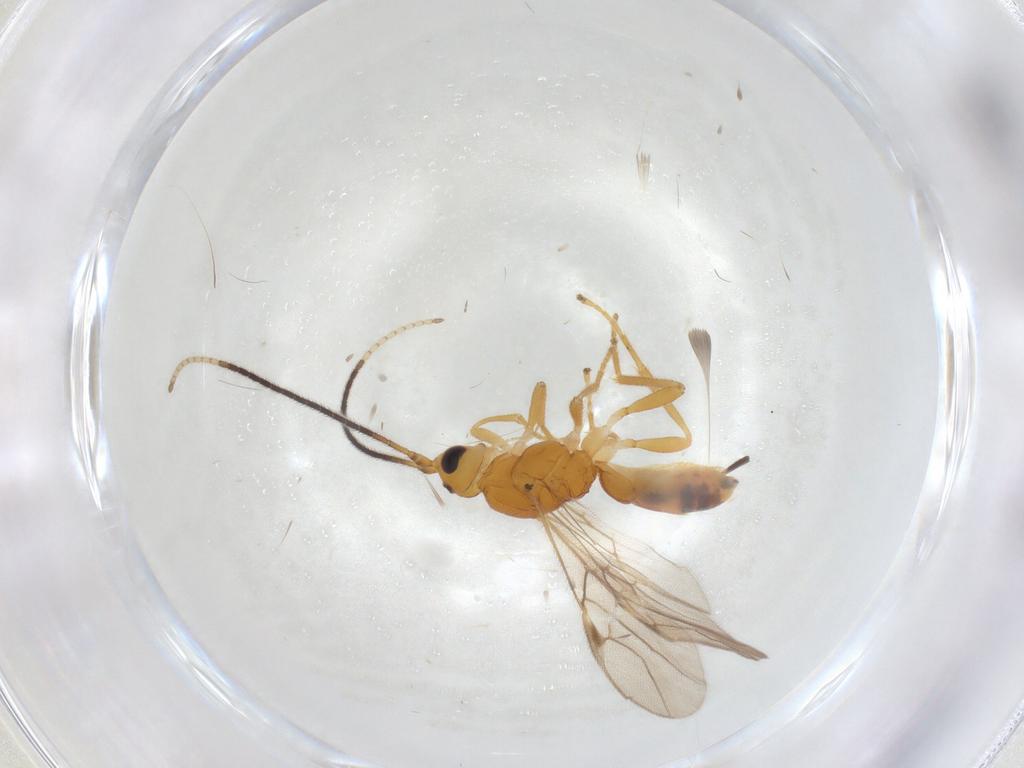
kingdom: Animalia
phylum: Arthropoda
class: Insecta
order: Hymenoptera
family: Braconidae
